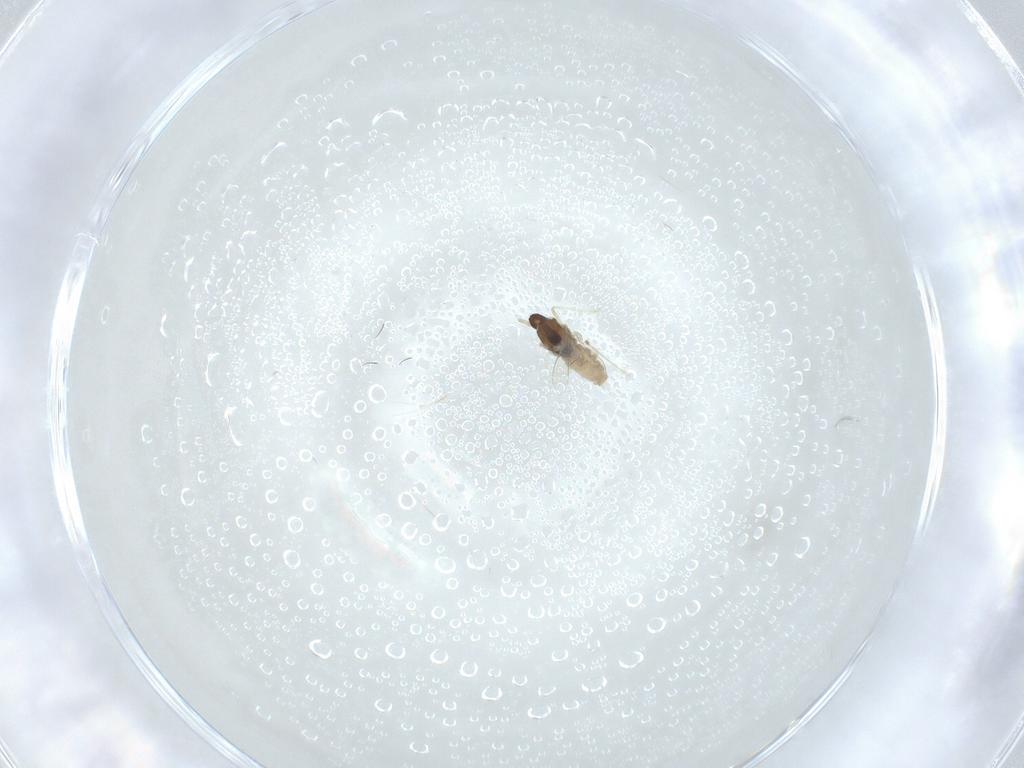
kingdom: Animalia
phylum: Arthropoda
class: Insecta
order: Diptera
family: Cecidomyiidae
